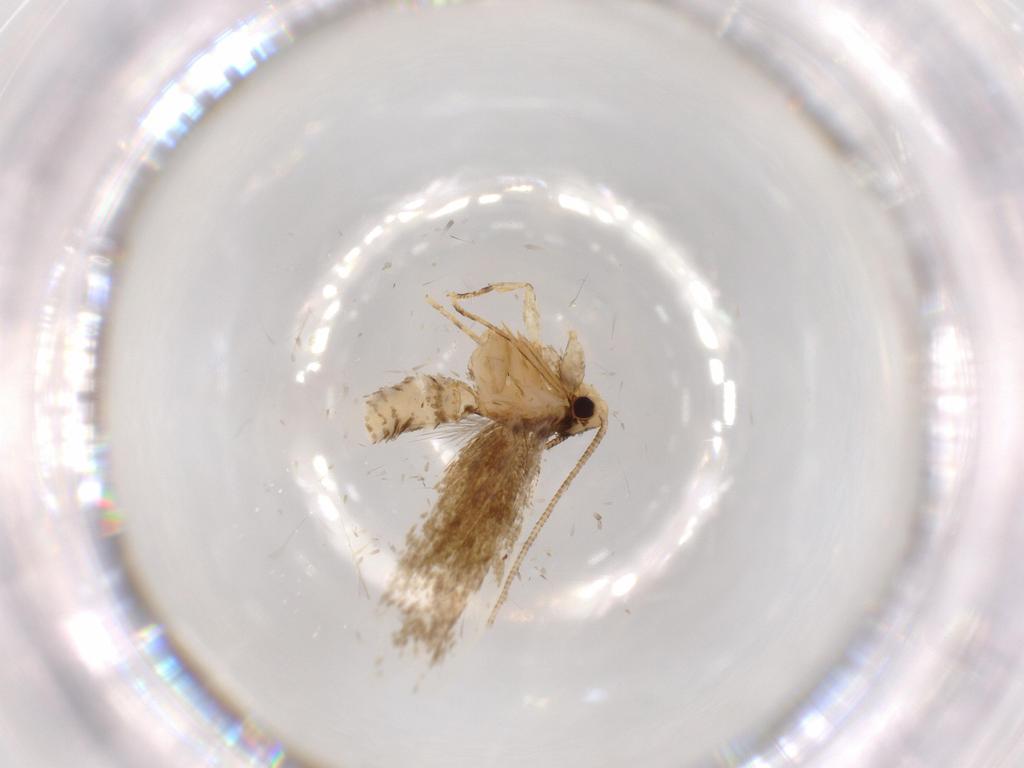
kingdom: Animalia
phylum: Arthropoda
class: Insecta
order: Lepidoptera
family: Tineidae
